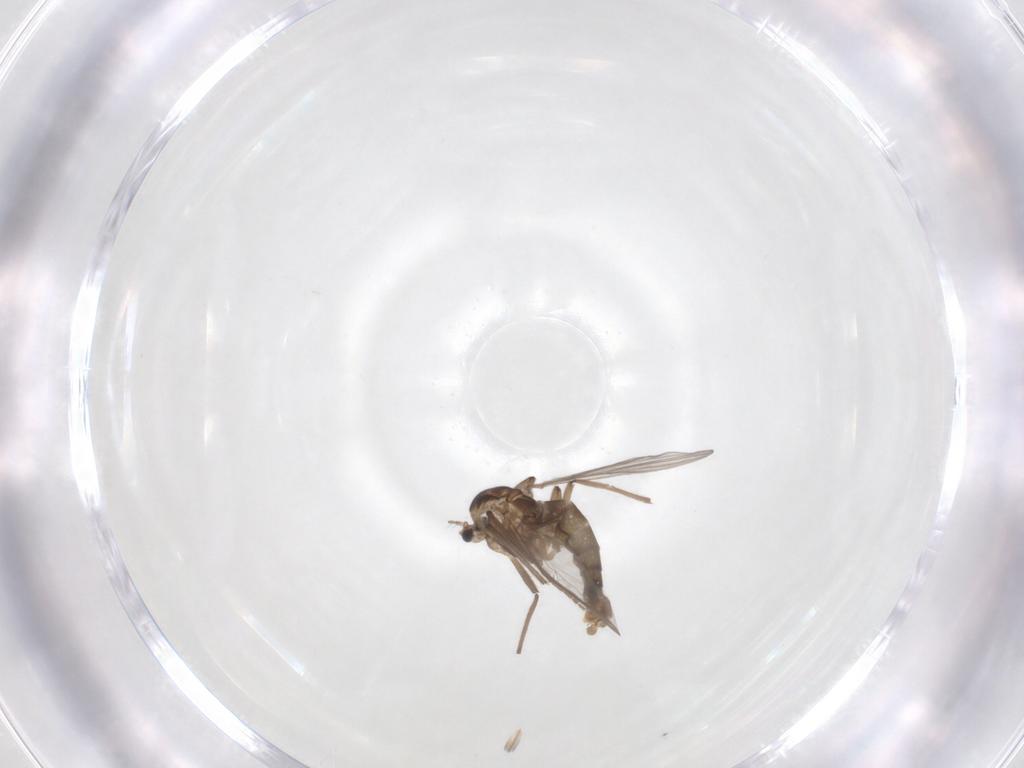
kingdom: Animalia
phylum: Arthropoda
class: Insecta
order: Diptera
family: Chironomidae
